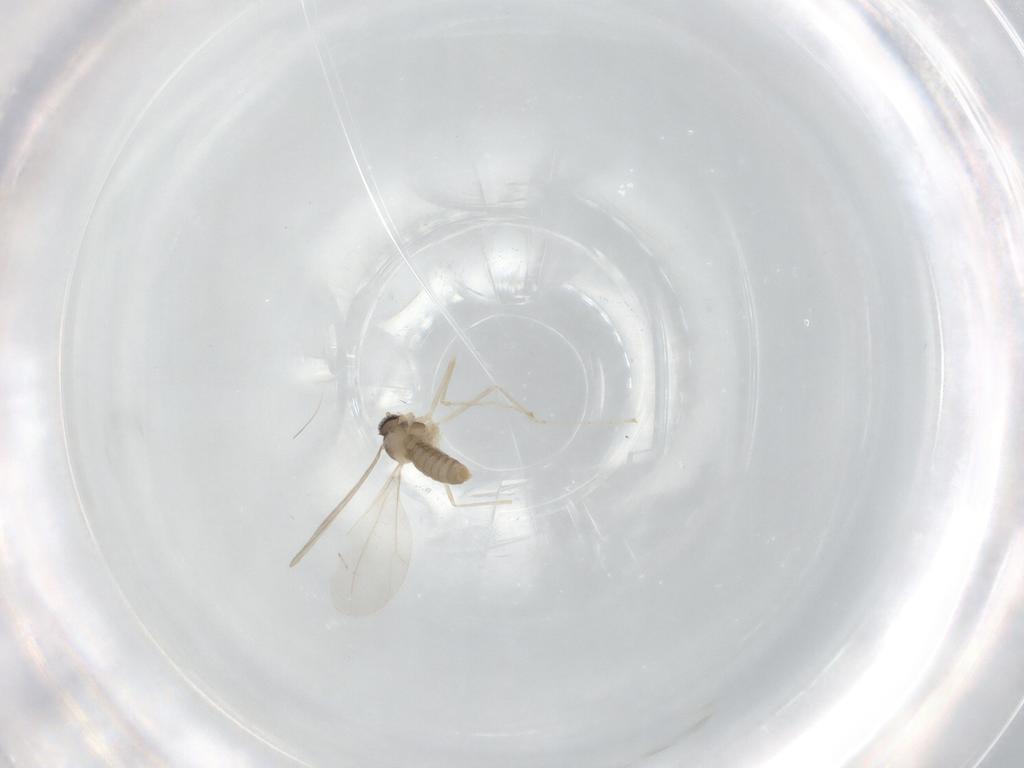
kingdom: Animalia
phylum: Arthropoda
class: Insecta
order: Diptera
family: Cecidomyiidae
